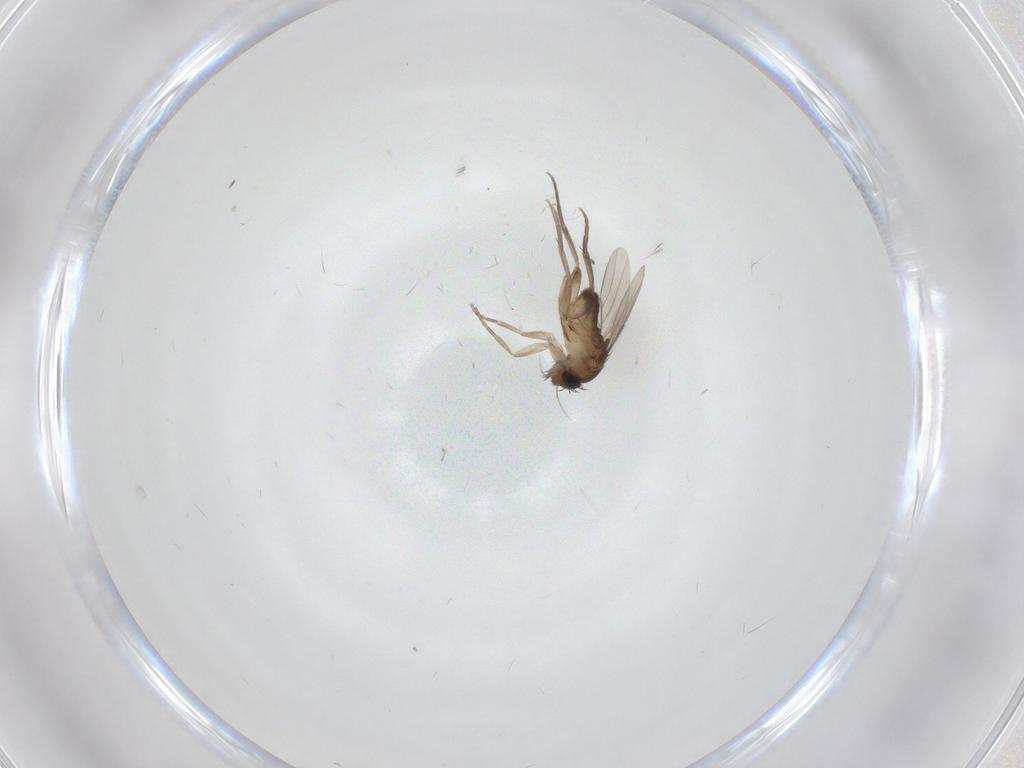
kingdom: Animalia
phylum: Arthropoda
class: Insecta
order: Diptera
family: Phoridae
